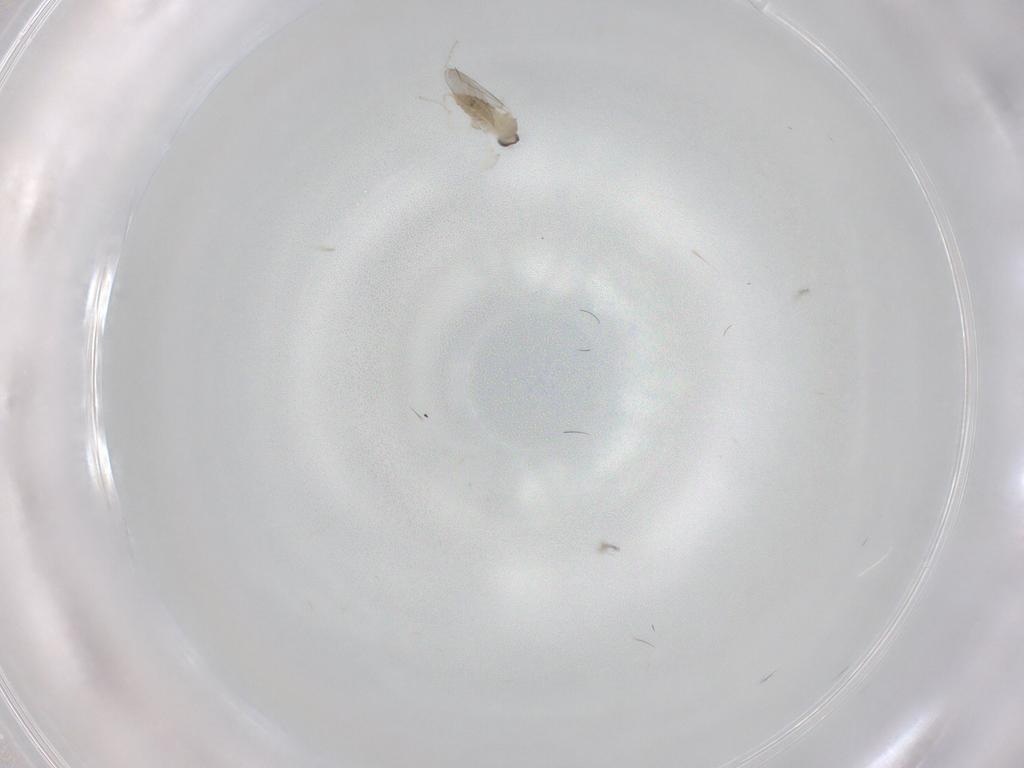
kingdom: Animalia
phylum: Arthropoda
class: Insecta
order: Diptera
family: Cecidomyiidae
